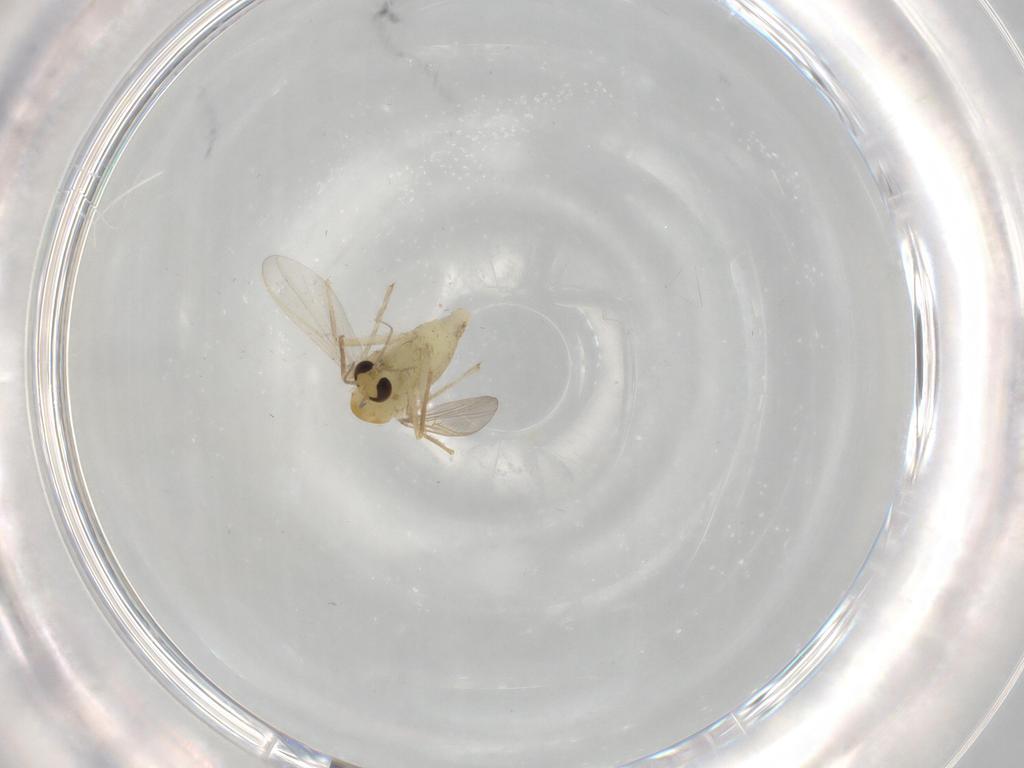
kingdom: Animalia
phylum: Arthropoda
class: Insecta
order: Diptera
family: Chironomidae
